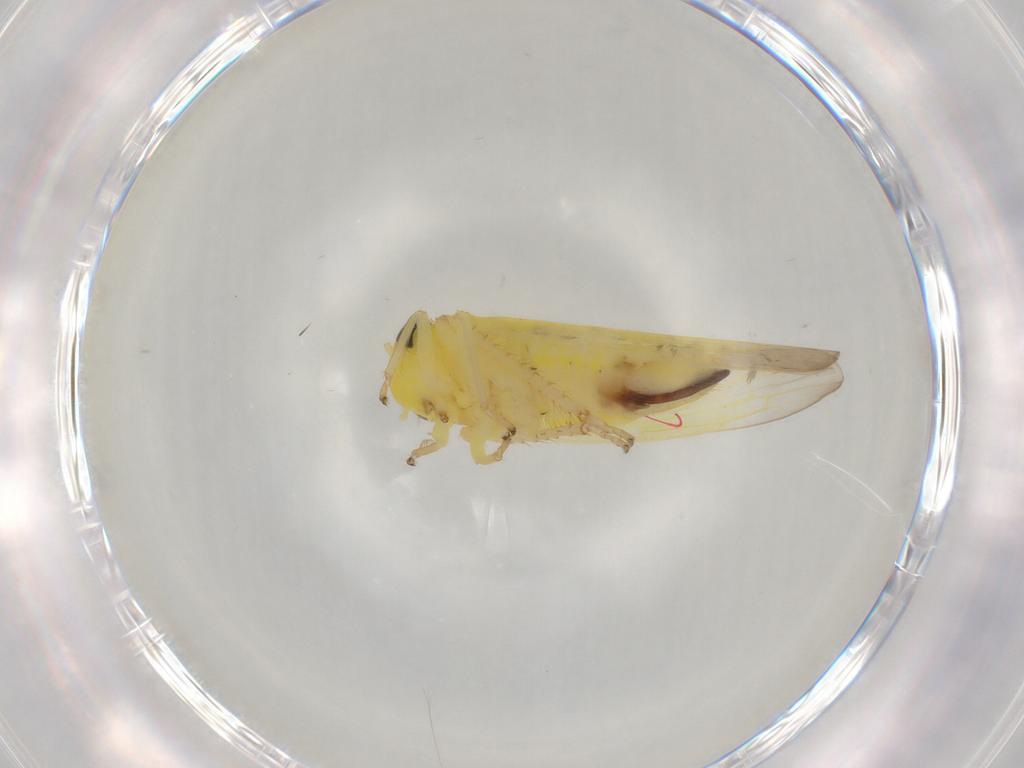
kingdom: Animalia
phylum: Arthropoda
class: Insecta
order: Hemiptera
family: Cicadellidae
